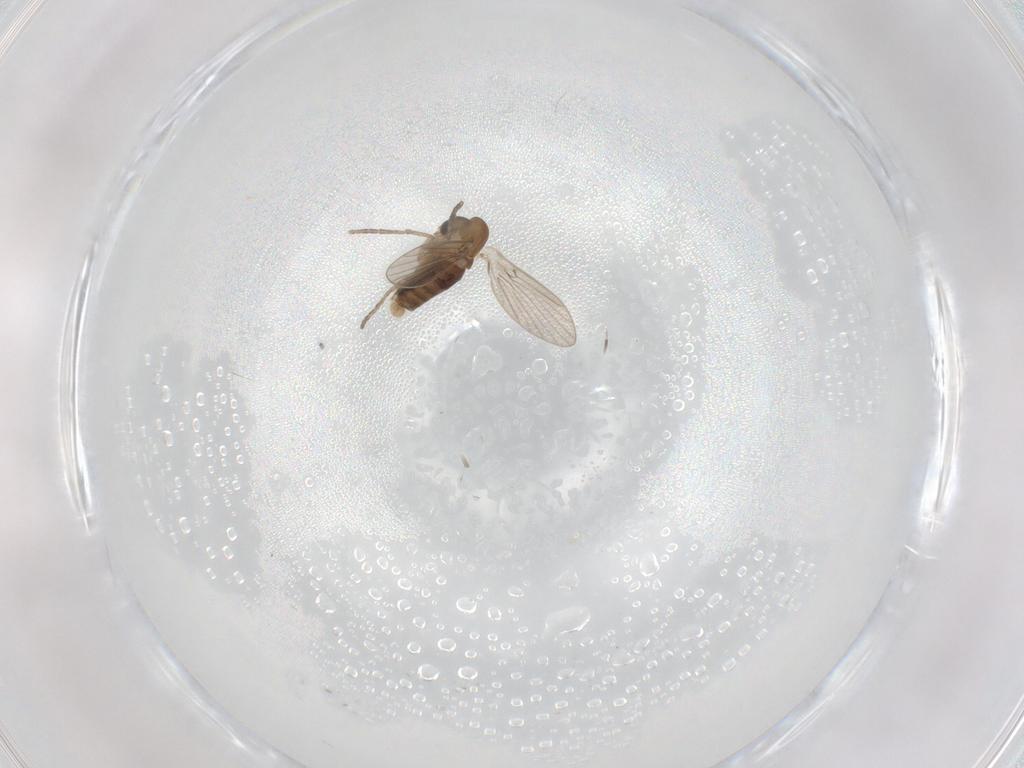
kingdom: Animalia
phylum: Arthropoda
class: Insecta
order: Diptera
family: Chironomidae
